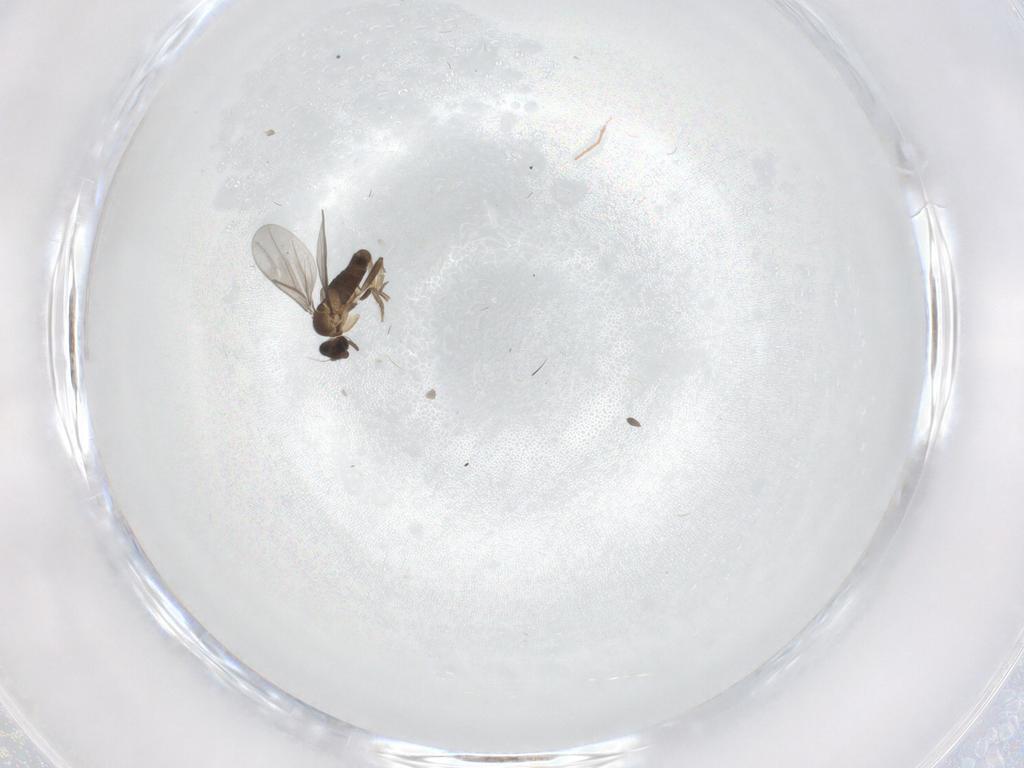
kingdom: Animalia
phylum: Arthropoda
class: Insecta
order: Diptera
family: Cecidomyiidae
